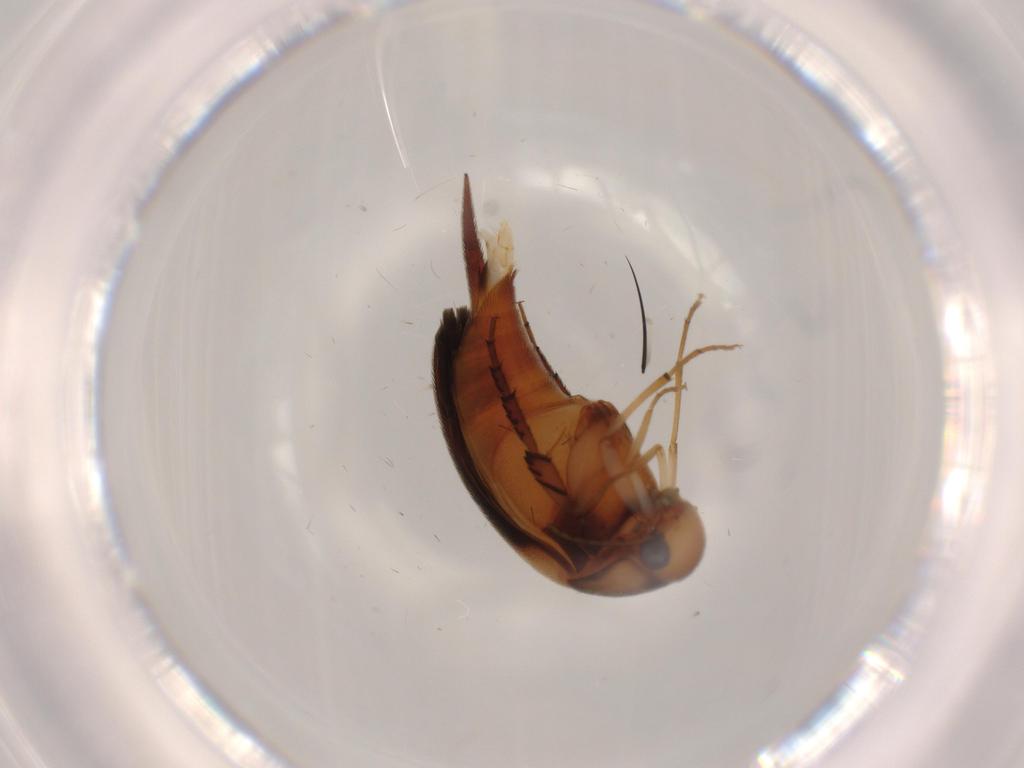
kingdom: Animalia
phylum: Arthropoda
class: Insecta
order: Coleoptera
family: Mordellidae
